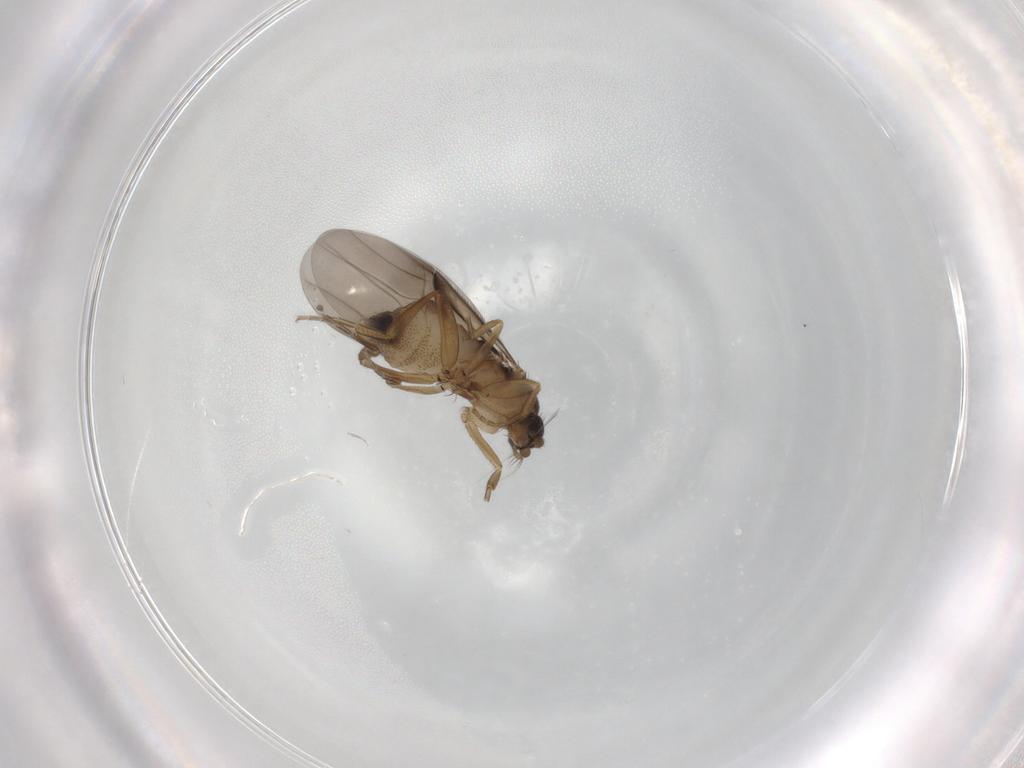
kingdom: Animalia
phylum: Arthropoda
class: Insecta
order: Diptera
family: Phoridae
